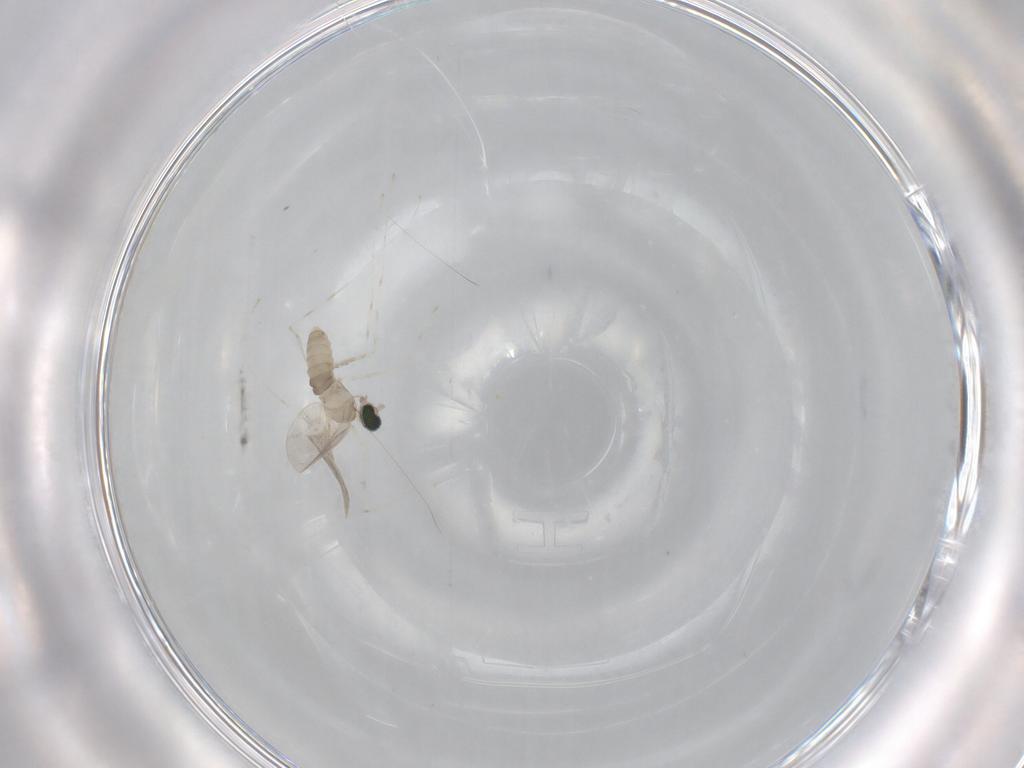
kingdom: Animalia
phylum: Arthropoda
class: Insecta
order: Diptera
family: Cecidomyiidae
